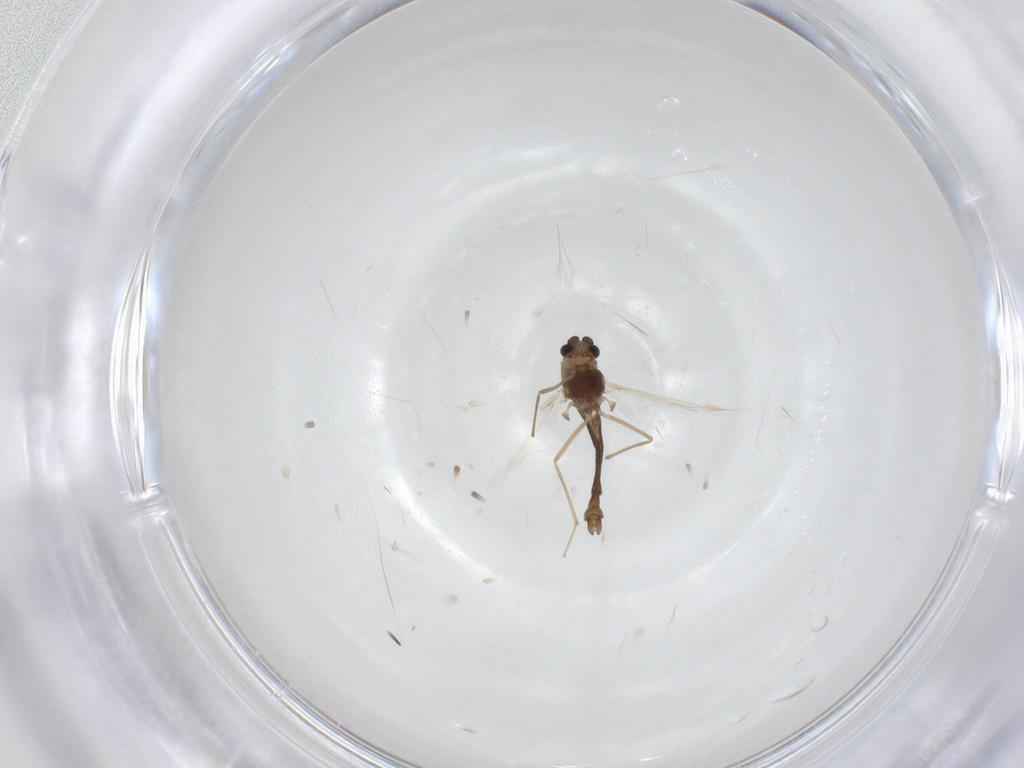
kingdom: Animalia
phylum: Arthropoda
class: Insecta
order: Diptera
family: Chironomidae
